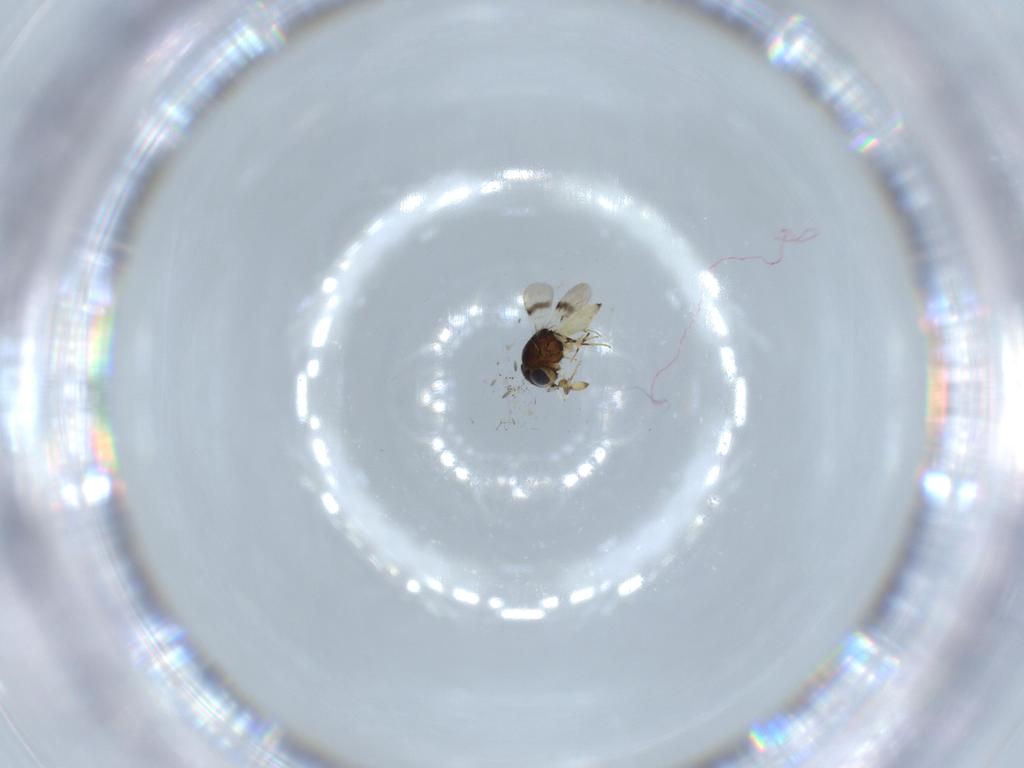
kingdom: Animalia
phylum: Arthropoda
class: Insecta
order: Hymenoptera
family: Scelionidae
